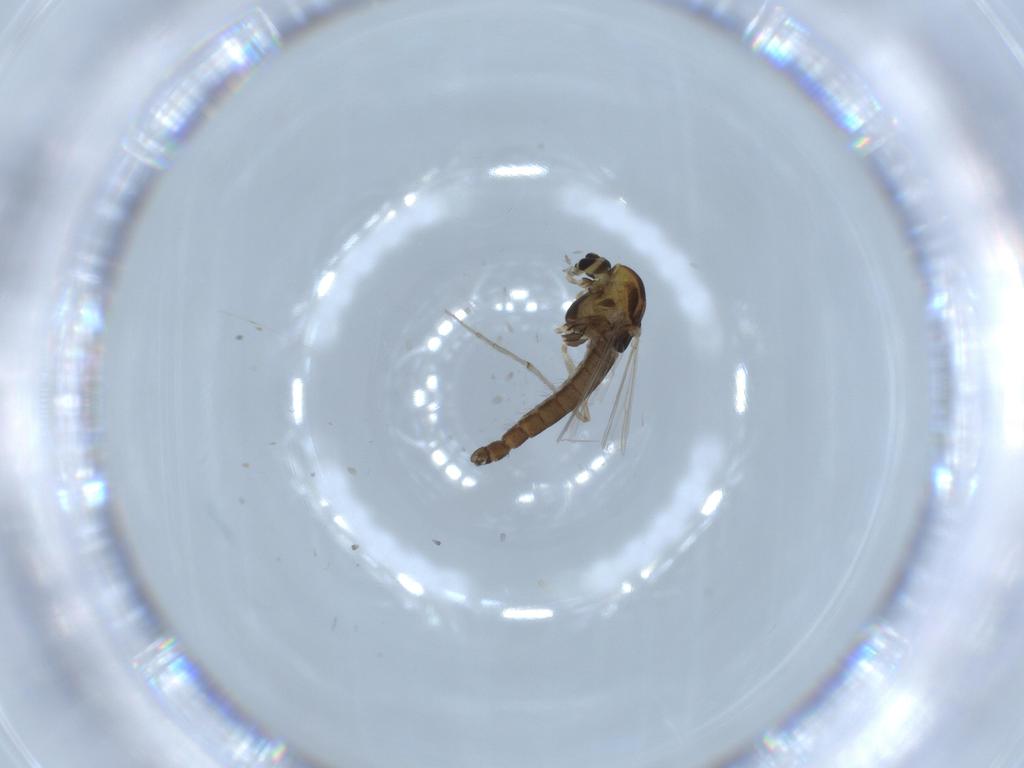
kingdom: Animalia
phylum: Arthropoda
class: Insecta
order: Diptera
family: Chironomidae
